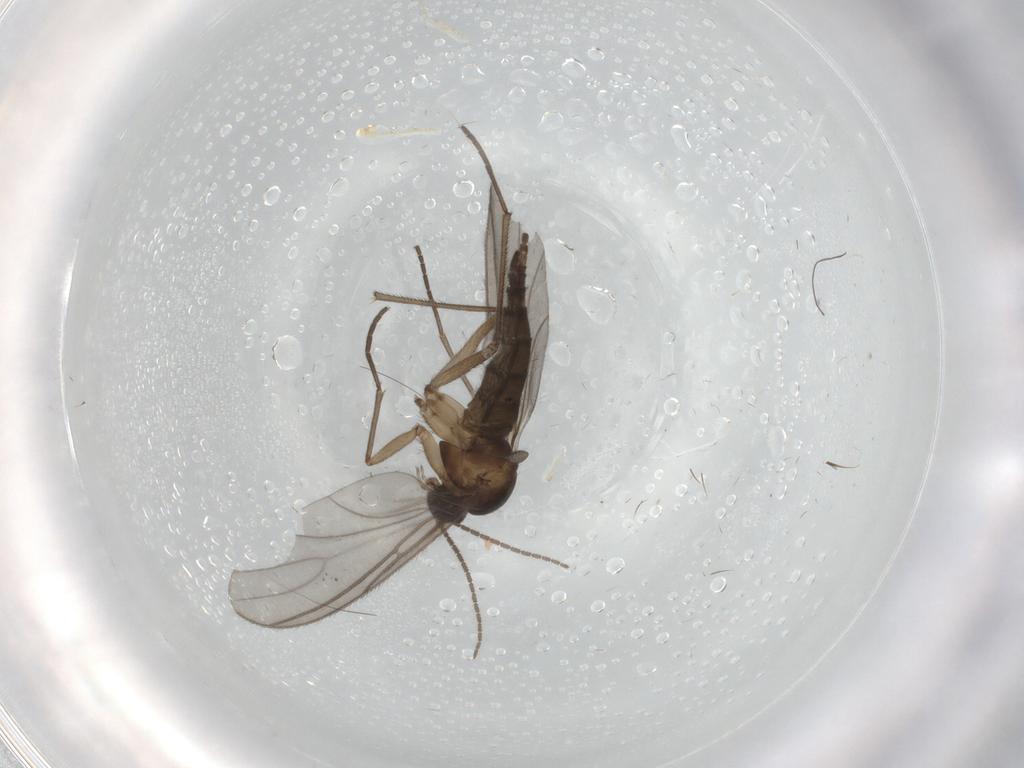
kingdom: Animalia
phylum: Arthropoda
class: Insecta
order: Diptera
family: Ditomyiidae
